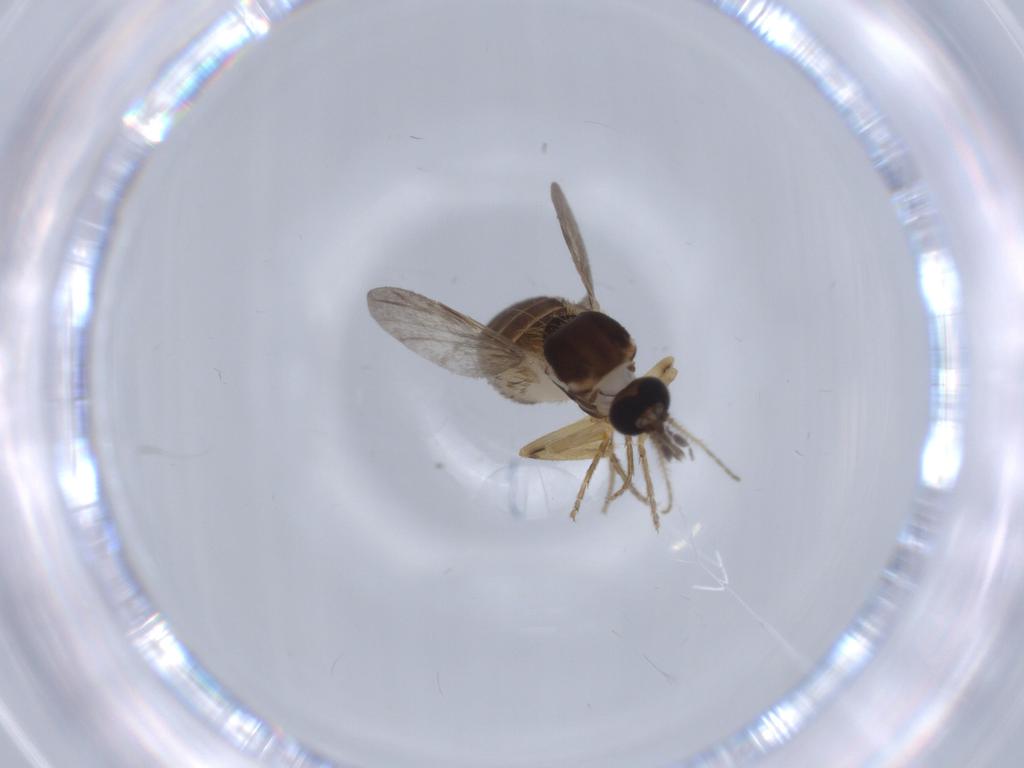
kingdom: Animalia
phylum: Arthropoda
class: Insecta
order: Diptera
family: Ceratopogonidae
